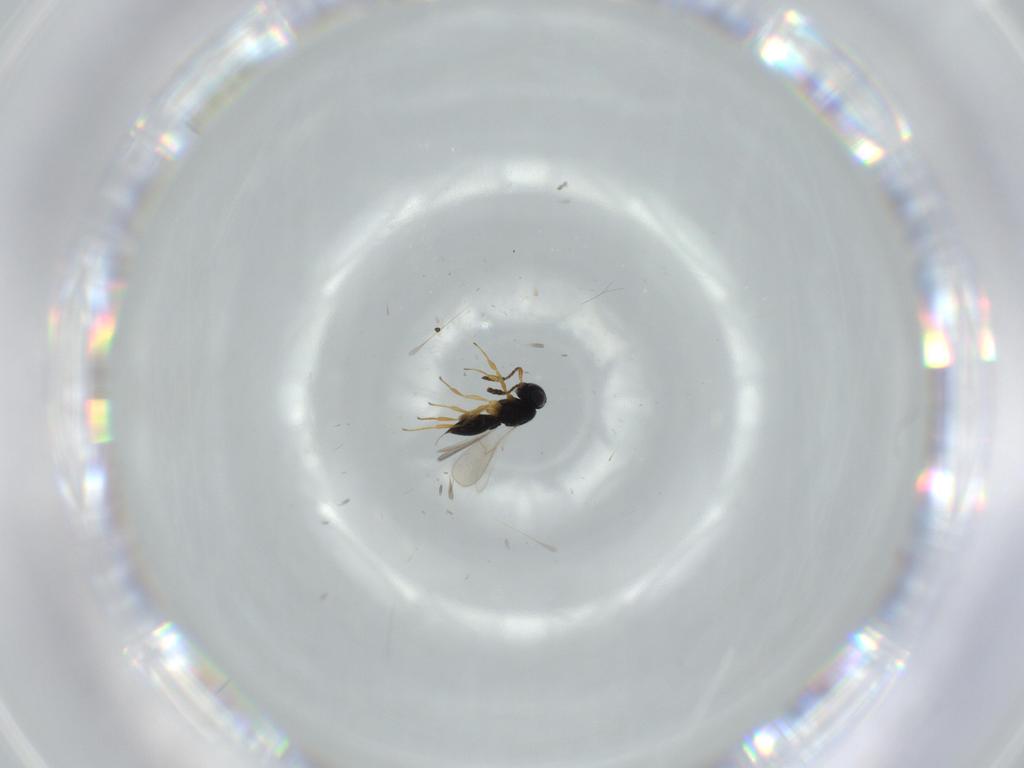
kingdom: Animalia
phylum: Arthropoda
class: Insecta
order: Hymenoptera
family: Scelionidae
